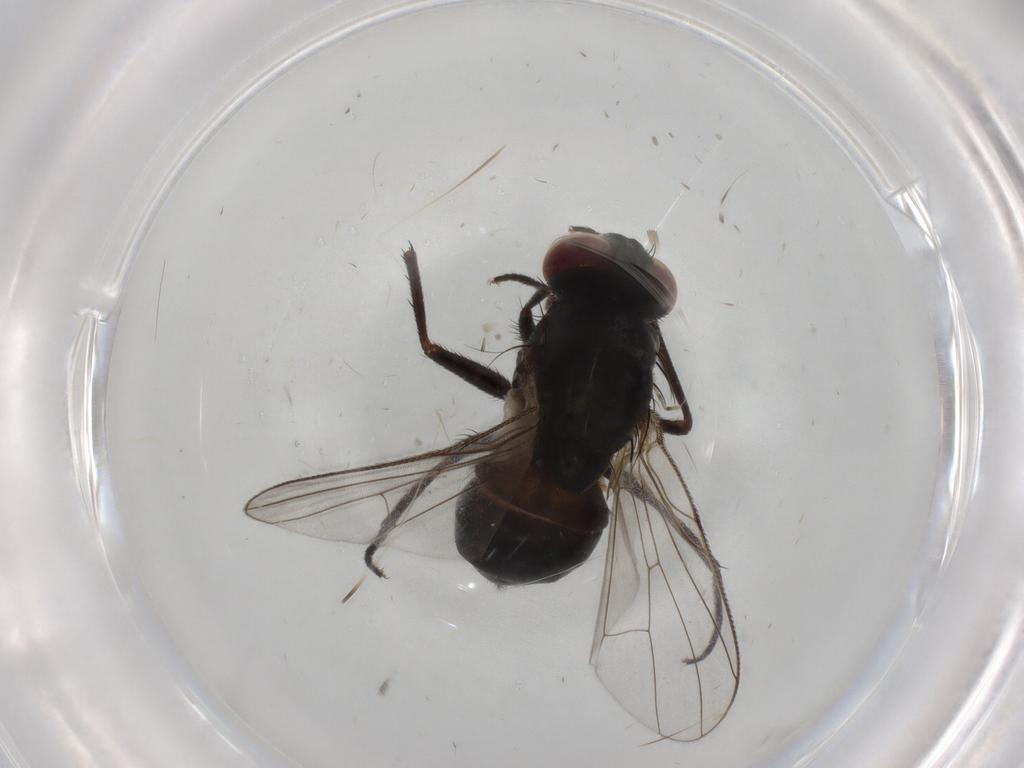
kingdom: Animalia
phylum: Arthropoda
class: Insecta
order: Diptera
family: Muscidae
